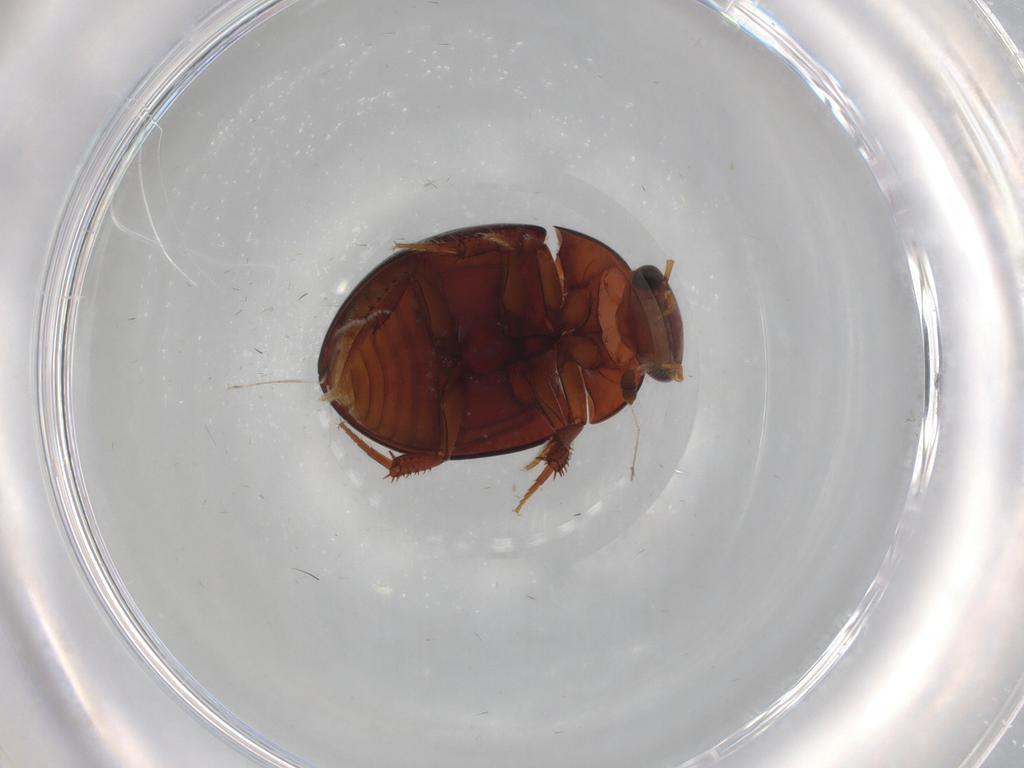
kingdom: Animalia
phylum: Arthropoda
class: Insecta
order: Coleoptera
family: Hydrophilidae
